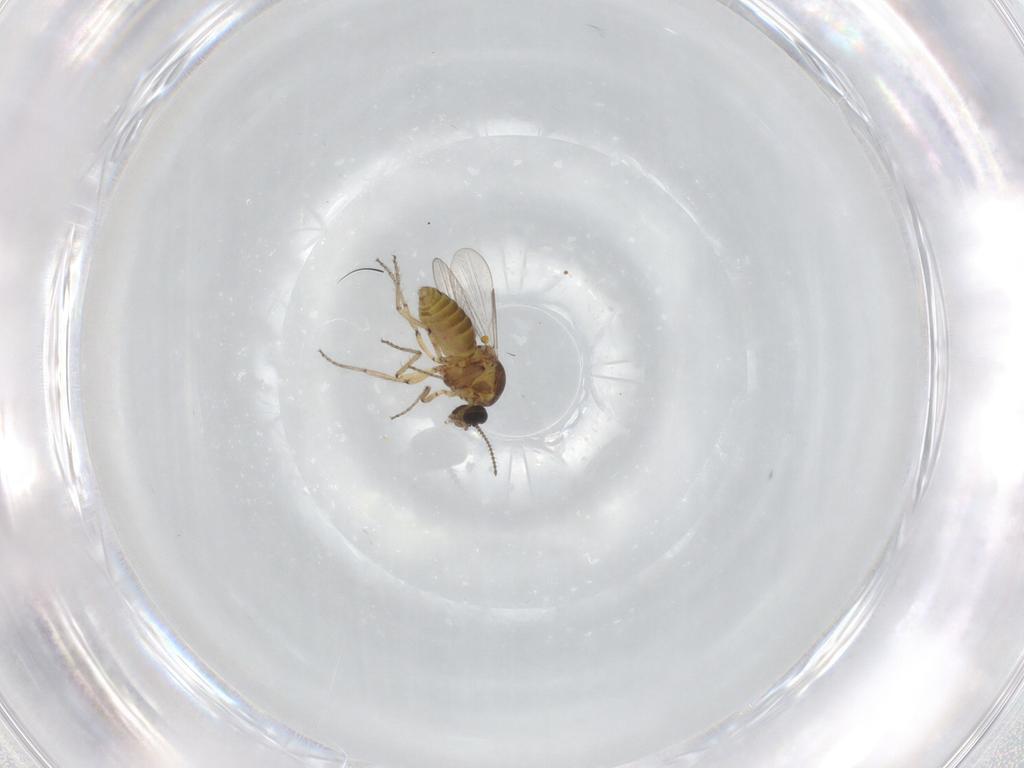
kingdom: Animalia
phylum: Arthropoda
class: Insecta
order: Diptera
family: Ceratopogonidae
